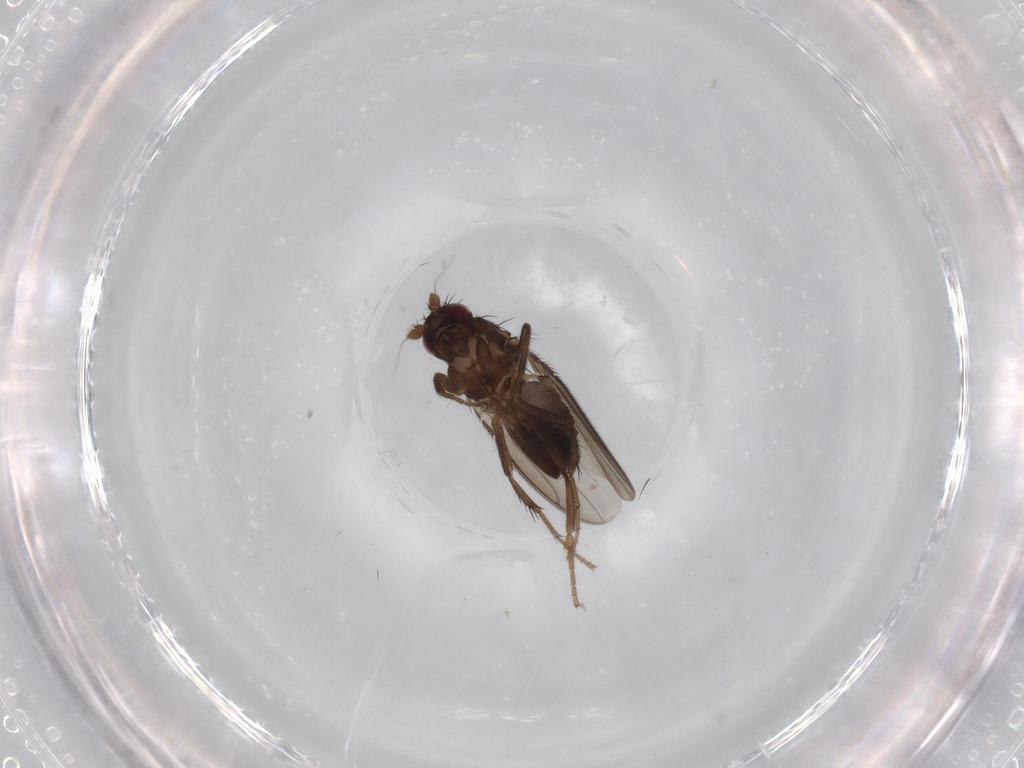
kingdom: Animalia
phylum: Arthropoda
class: Insecta
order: Diptera
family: Sphaeroceridae
